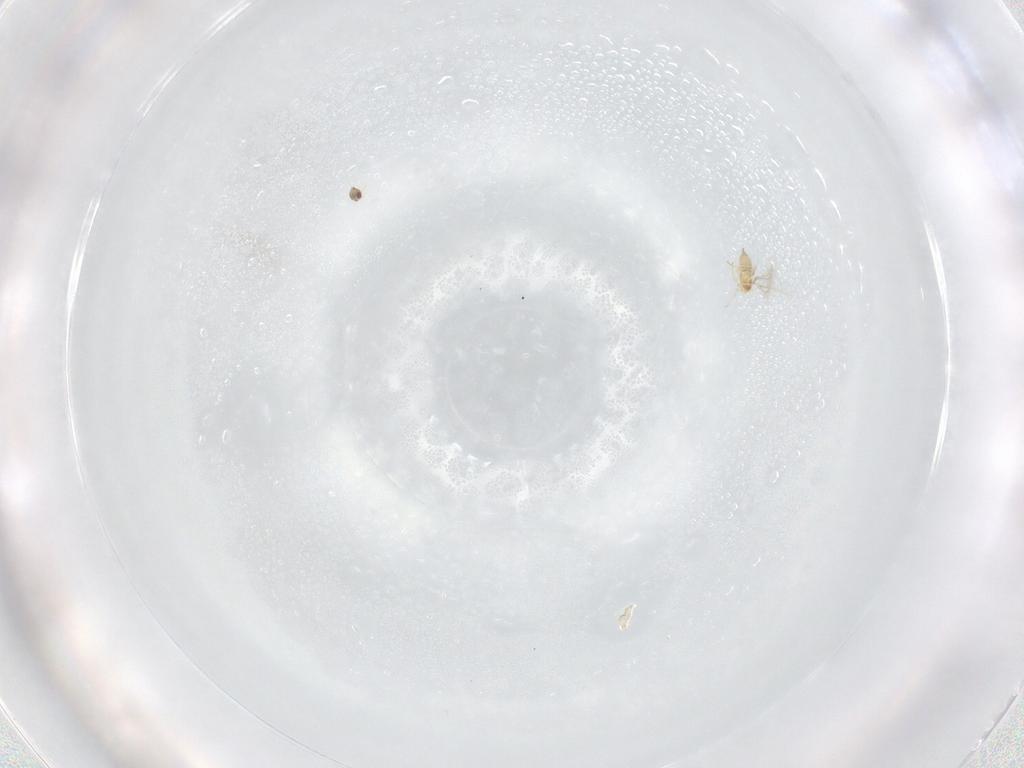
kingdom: Animalia
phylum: Arthropoda
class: Insecta
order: Hymenoptera
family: Mymaridae
